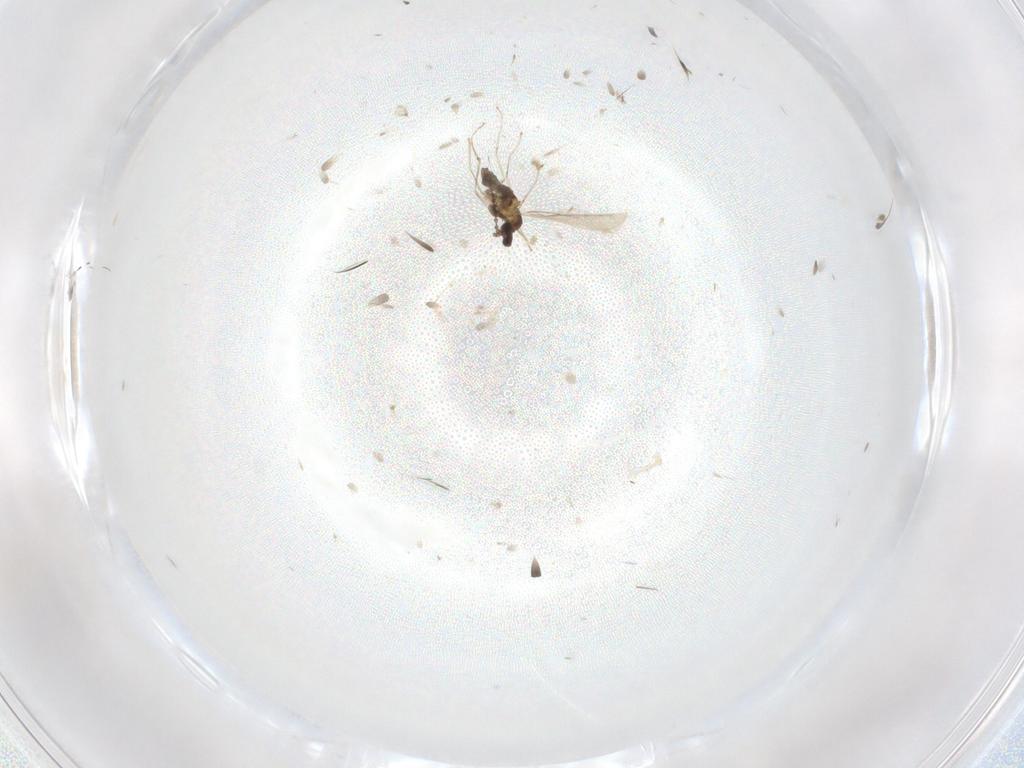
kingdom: Animalia
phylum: Arthropoda
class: Insecta
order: Diptera
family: Cecidomyiidae
